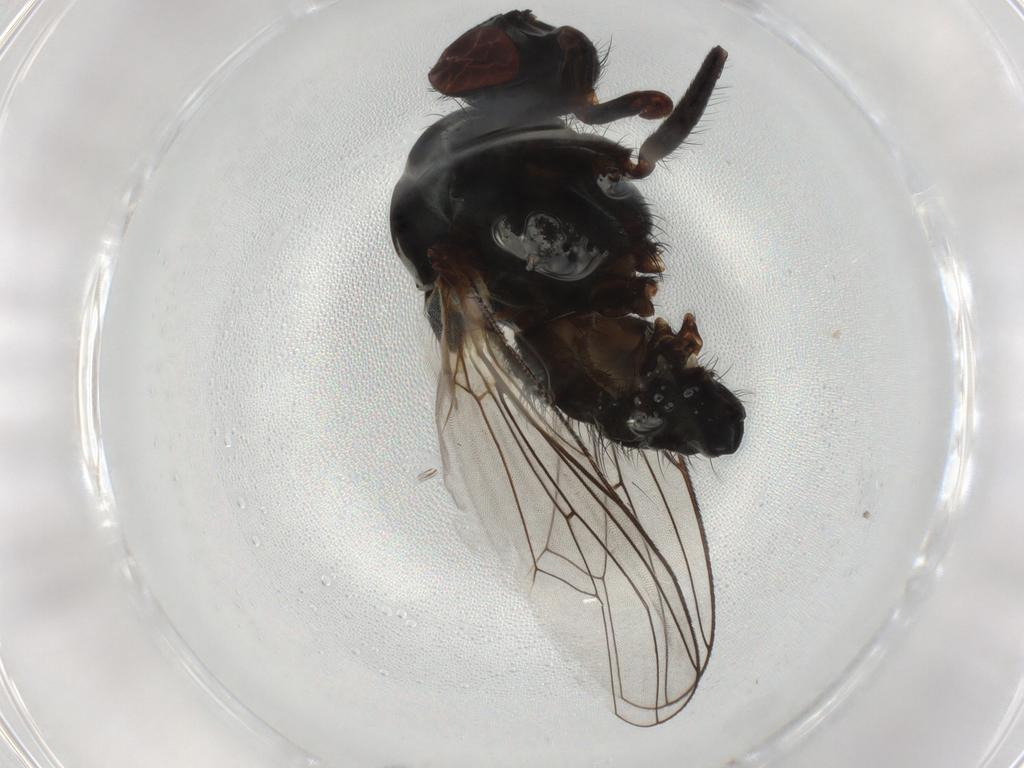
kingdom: Animalia
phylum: Arthropoda
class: Insecta
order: Diptera
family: Anthomyiidae
